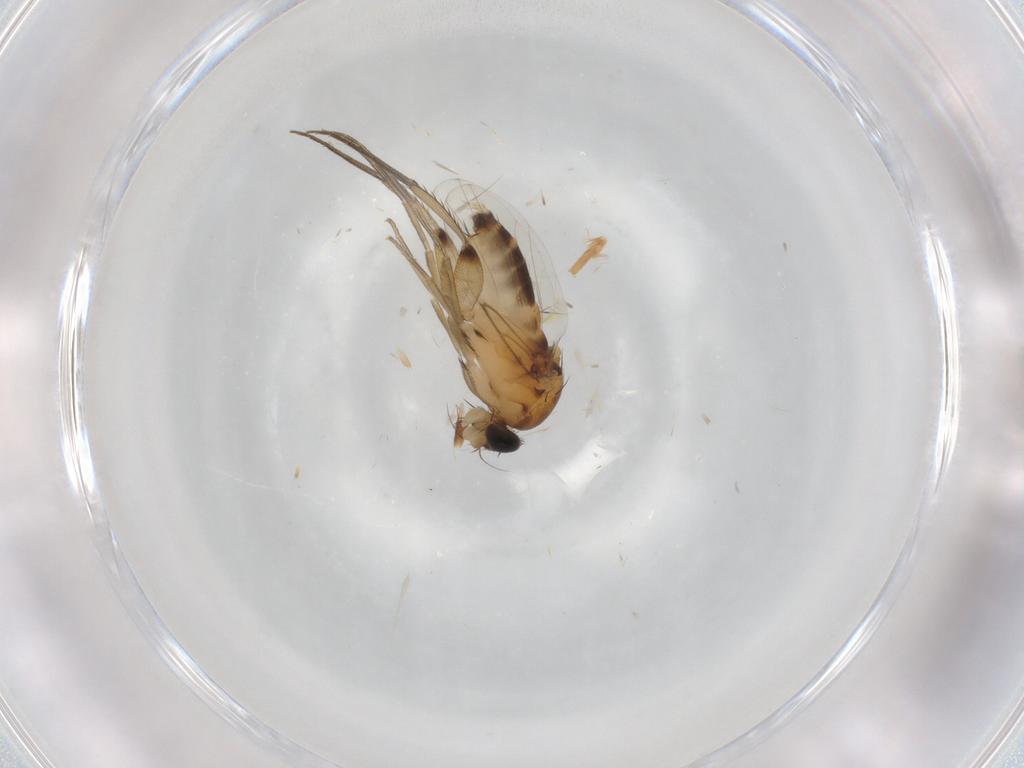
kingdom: Animalia
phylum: Arthropoda
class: Insecta
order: Diptera
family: Phoridae
